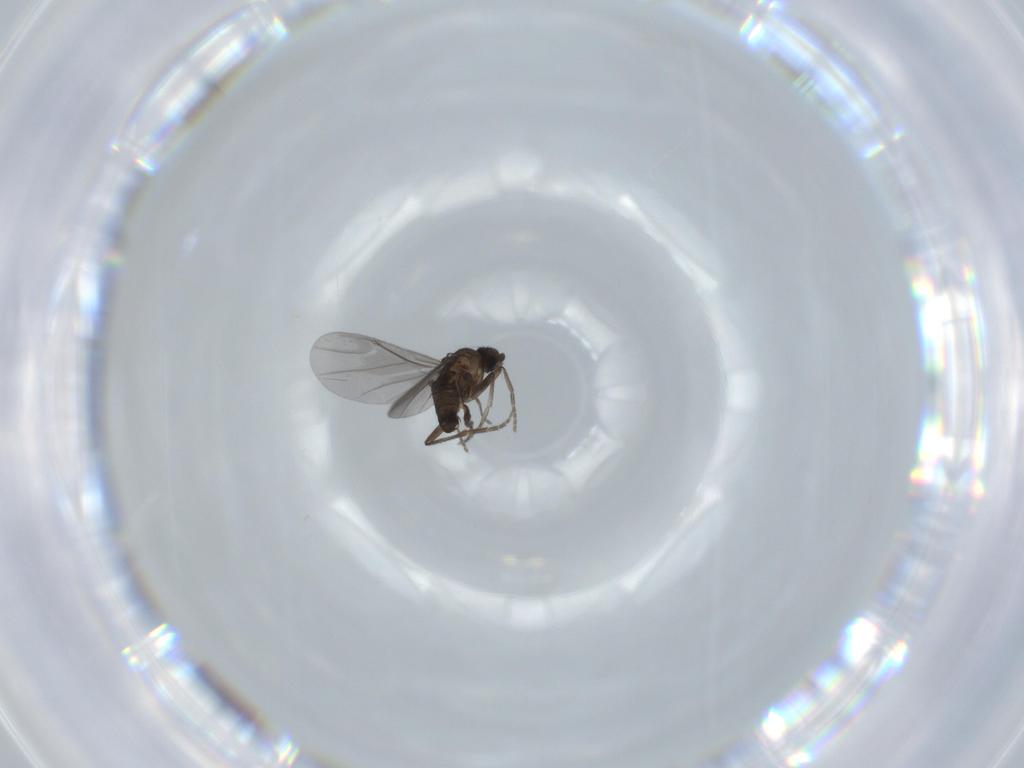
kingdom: Animalia
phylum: Arthropoda
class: Insecta
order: Diptera
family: Phoridae
